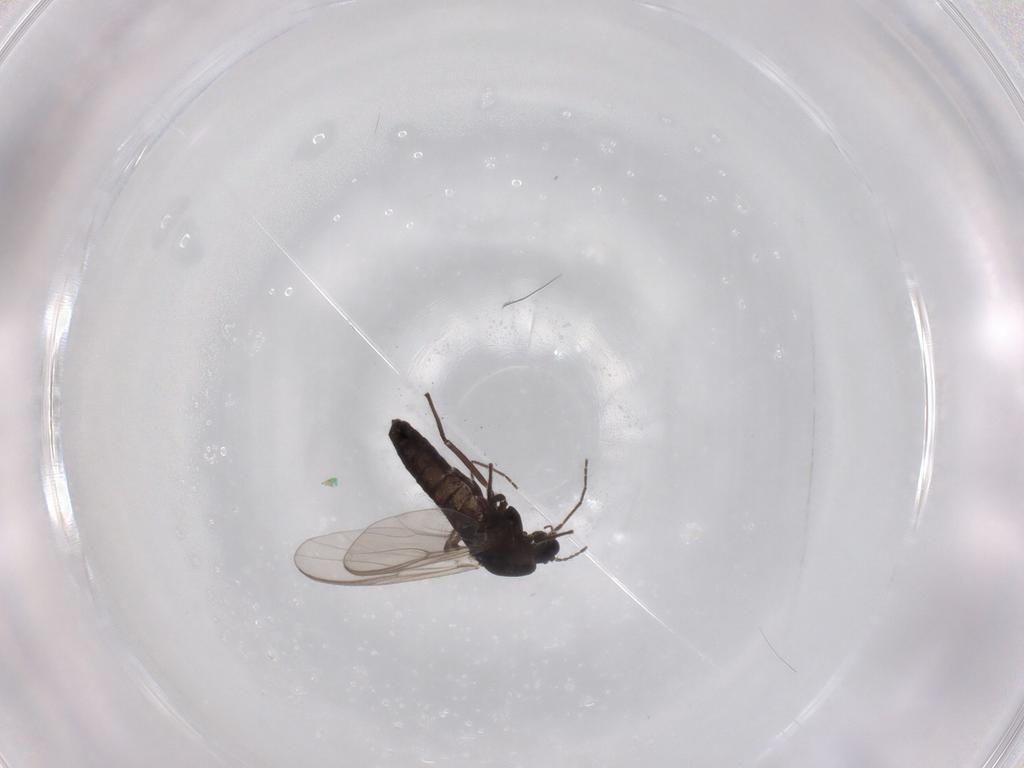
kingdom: Animalia
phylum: Arthropoda
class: Insecta
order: Diptera
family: Chironomidae
